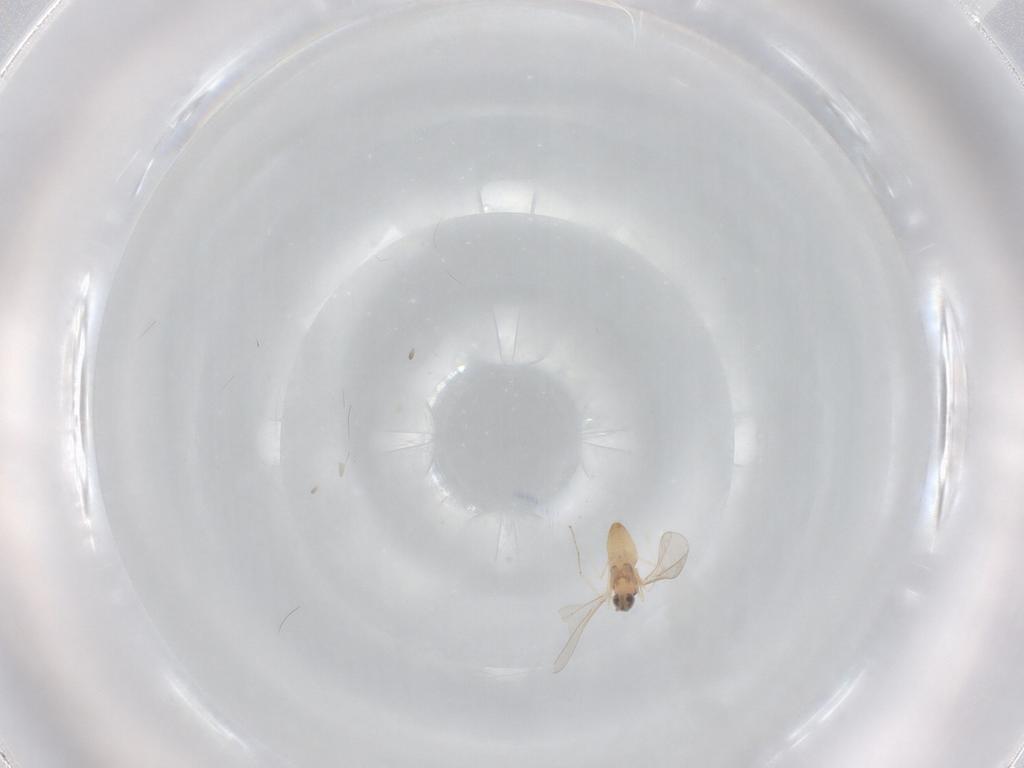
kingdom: Animalia
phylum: Arthropoda
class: Insecta
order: Diptera
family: Cecidomyiidae
